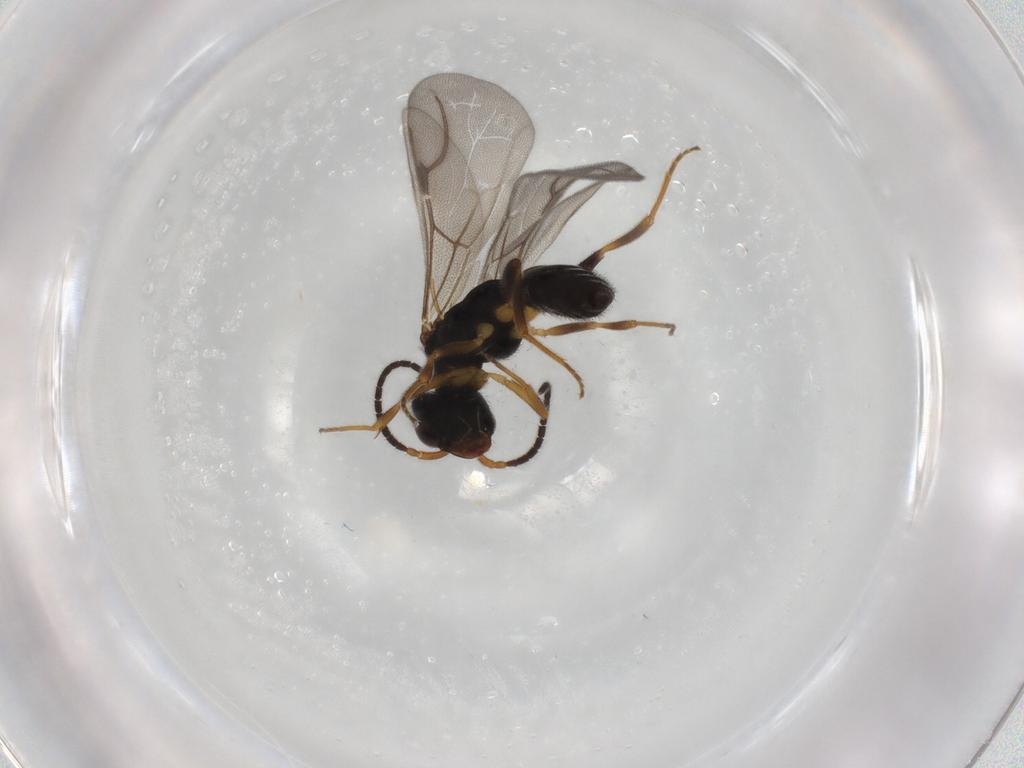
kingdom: Animalia
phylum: Arthropoda
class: Insecta
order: Hymenoptera
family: Bethylidae
